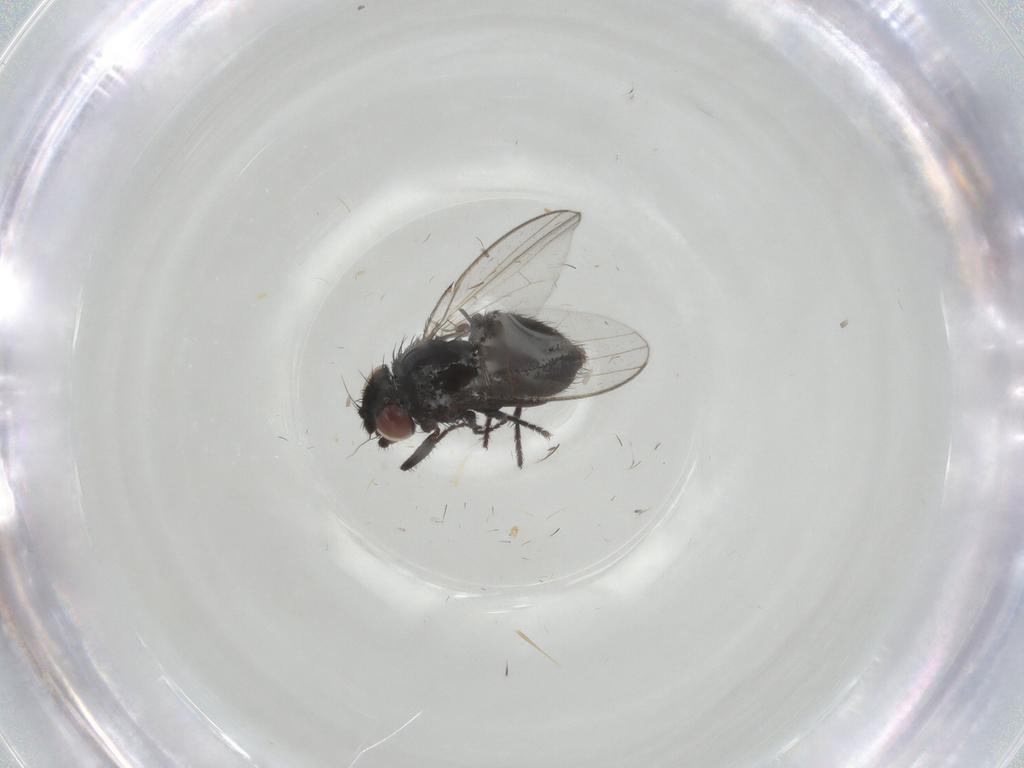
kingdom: Animalia
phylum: Arthropoda
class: Insecta
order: Diptera
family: Milichiidae
